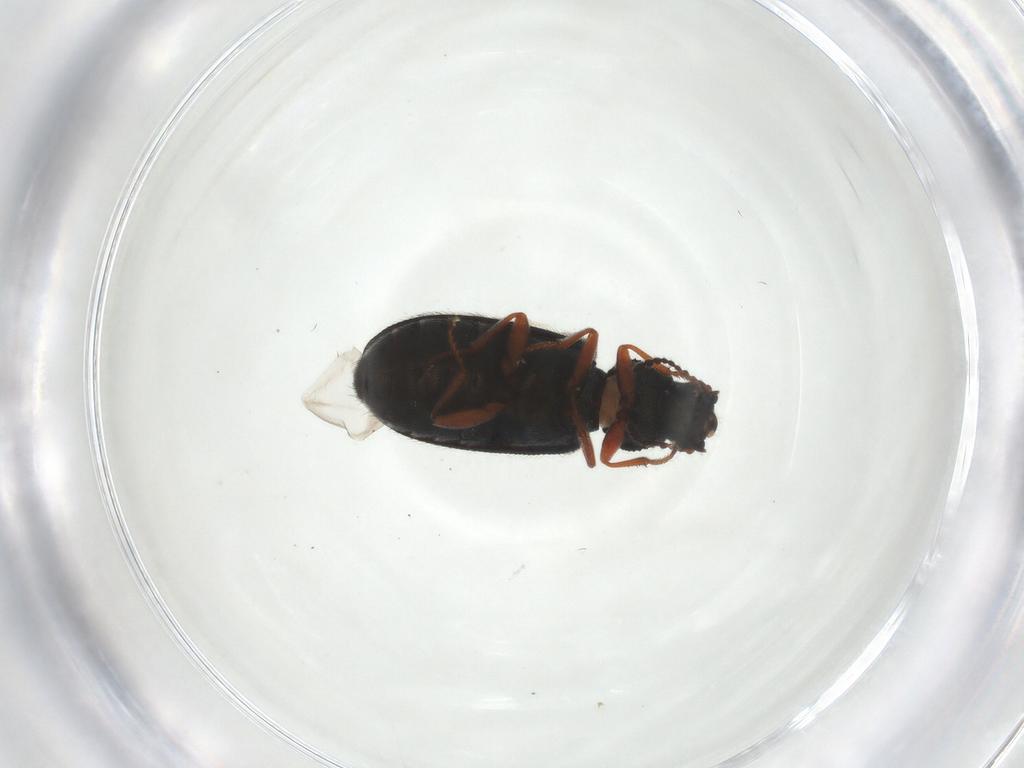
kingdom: Animalia
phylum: Arthropoda
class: Insecta
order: Coleoptera
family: Melyridae
